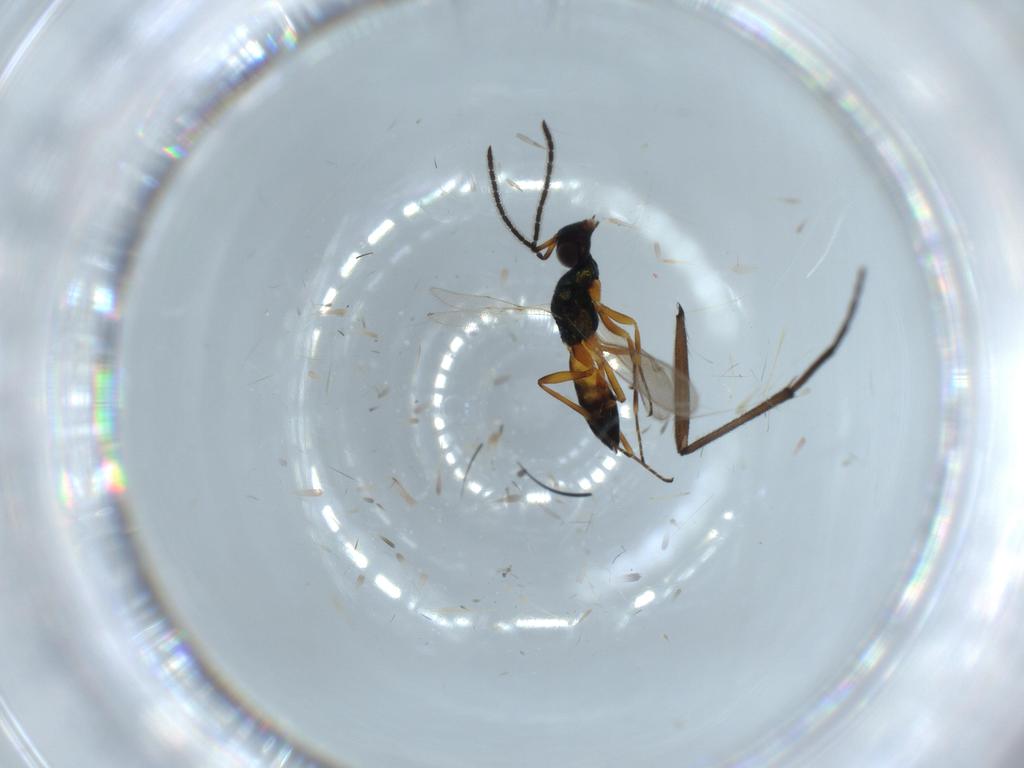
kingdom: Animalia
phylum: Arthropoda
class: Insecta
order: Hymenoptera
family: Eupelmidae
